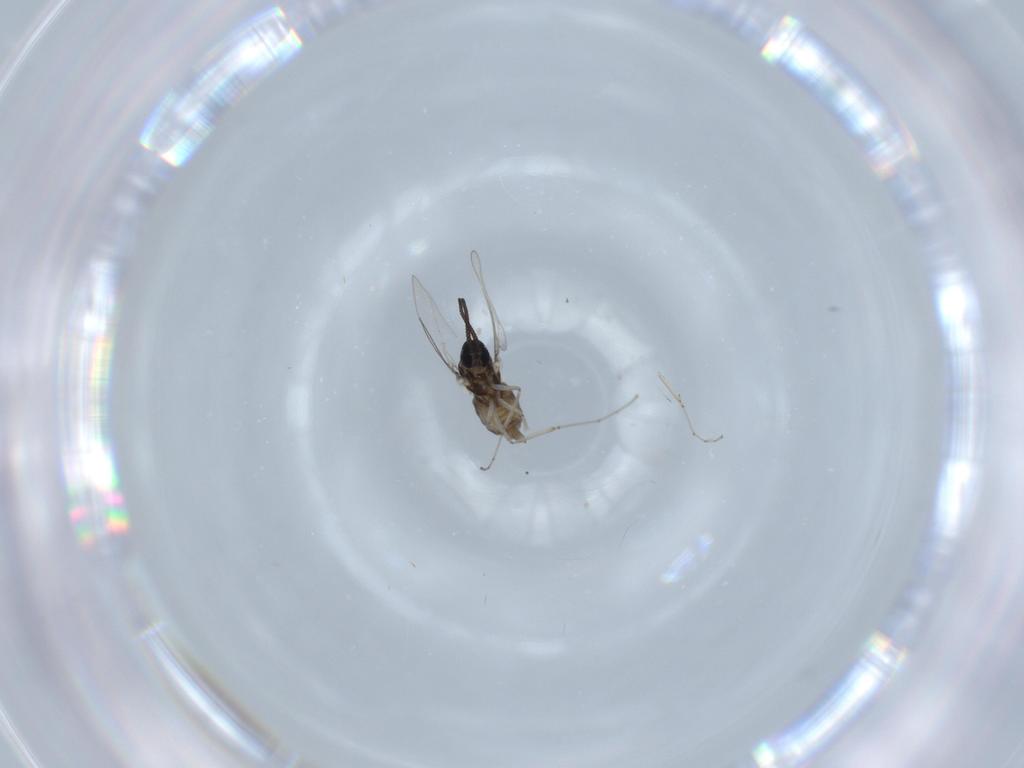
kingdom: Animalia
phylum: Arthropoda
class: Insecta
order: Diptera
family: Cecidomyiidae
